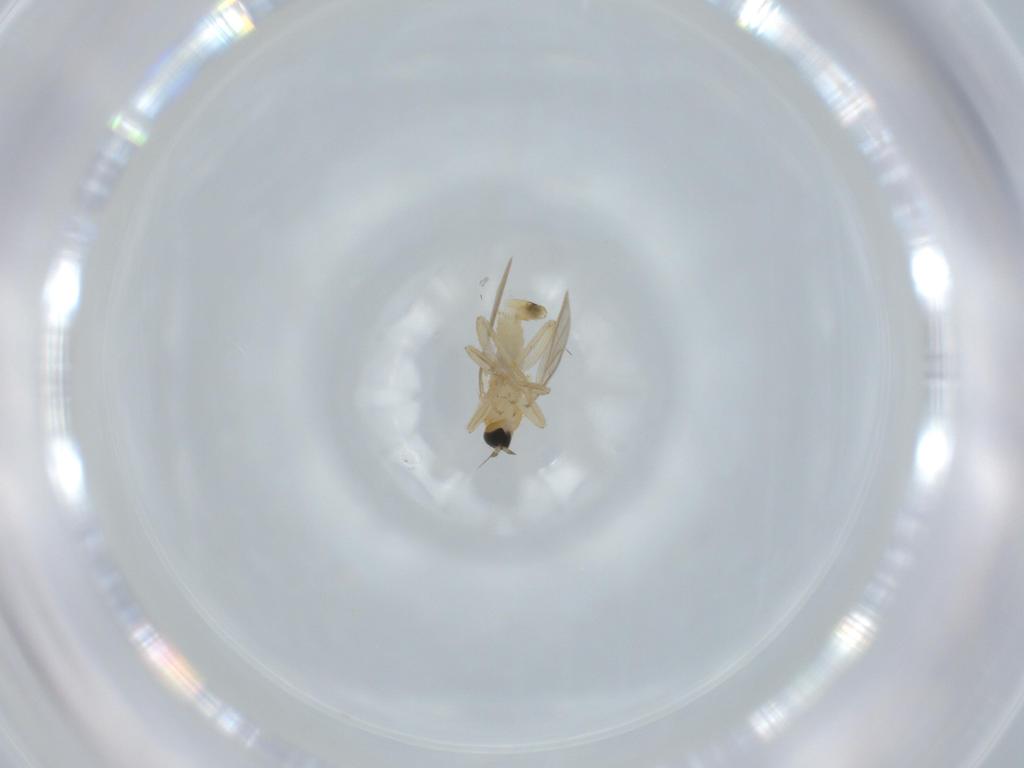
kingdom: Animalia
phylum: Arthropoda
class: Insecta
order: Diptera
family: Hybotidae
